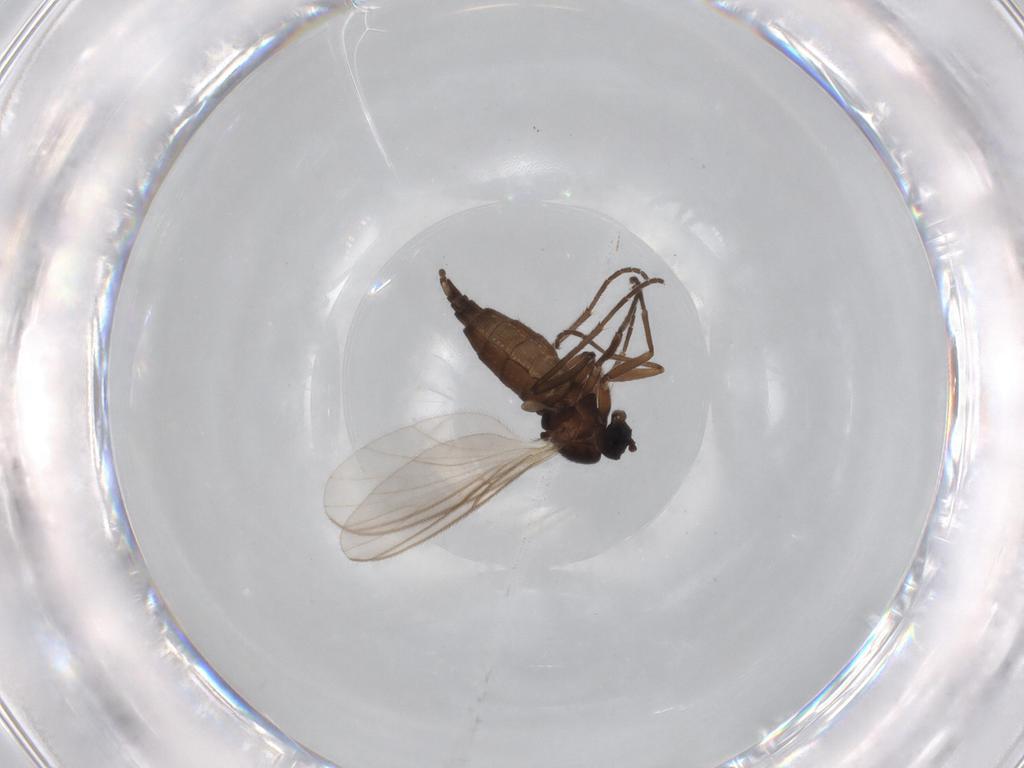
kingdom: Animalia
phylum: Arthropoda
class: Insecta
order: Diptera
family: Sciaridae
